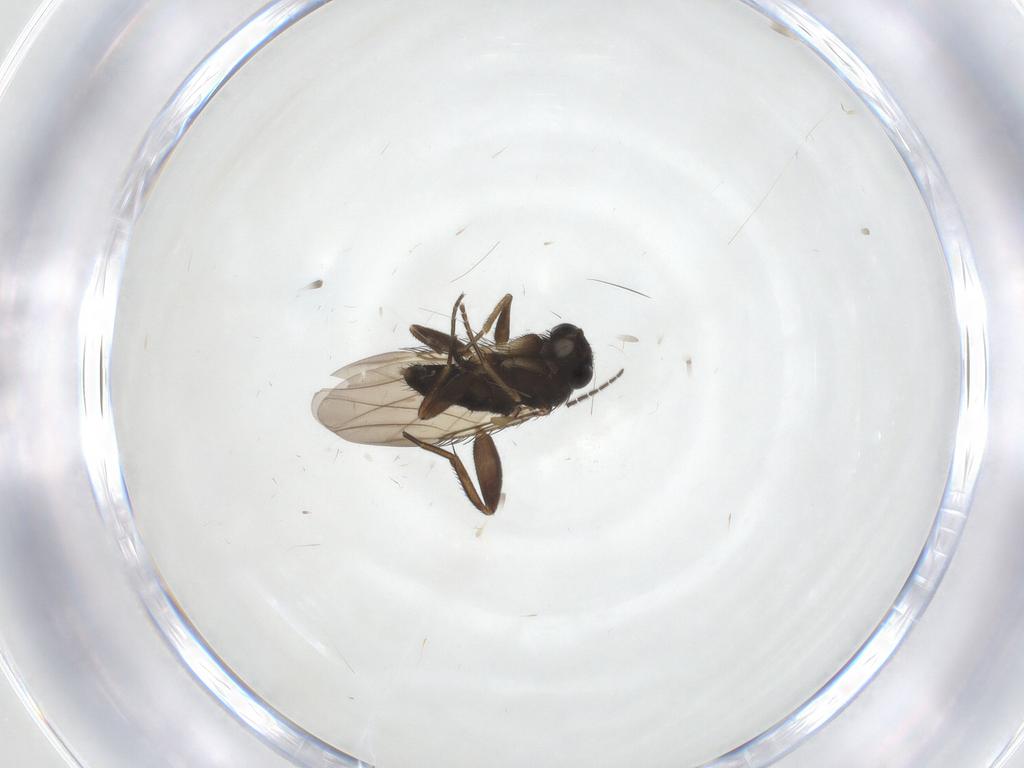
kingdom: Animalia
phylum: Arthropoda
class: Insecta
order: Diptera
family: Phoridae
